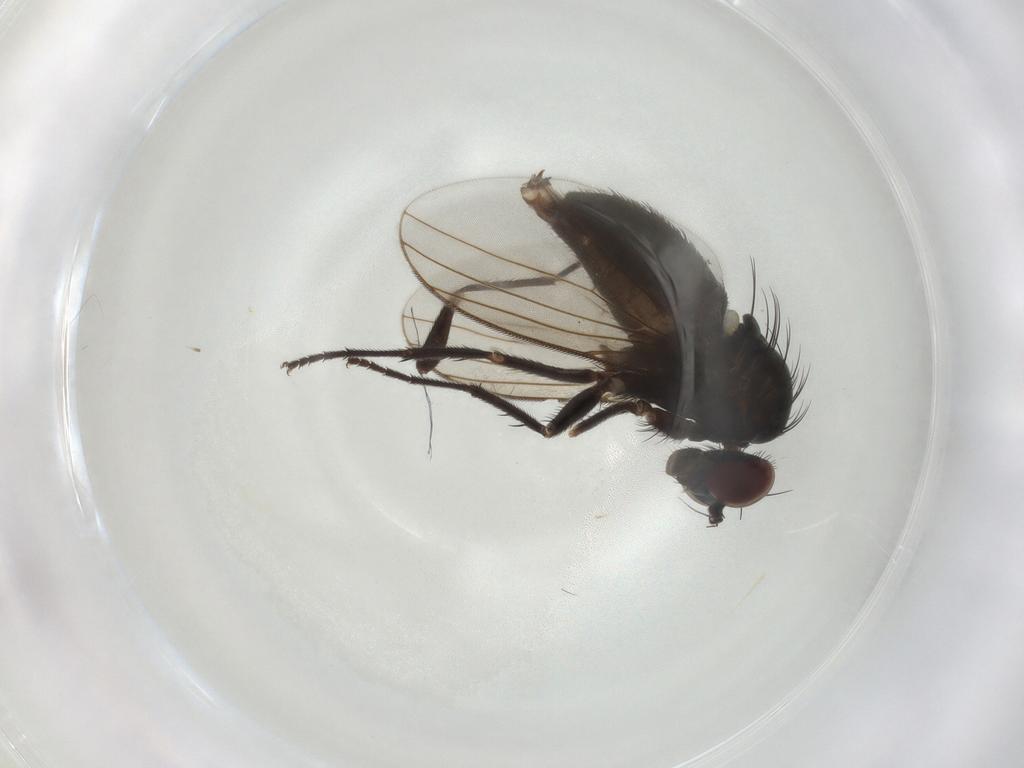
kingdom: Animalia
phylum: Arthropoda
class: Insecta
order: Diptera
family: Dolichopodidae
